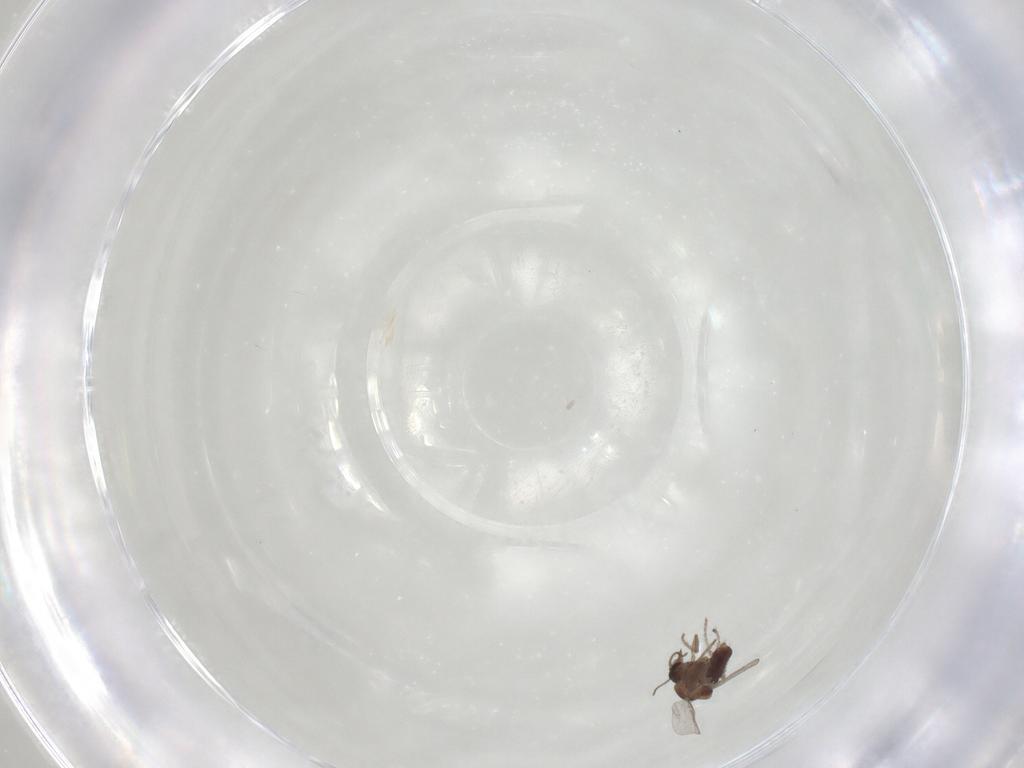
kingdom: Animalia
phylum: Arthropoda
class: Insecta
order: Diptera
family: Ceratopogonidae
